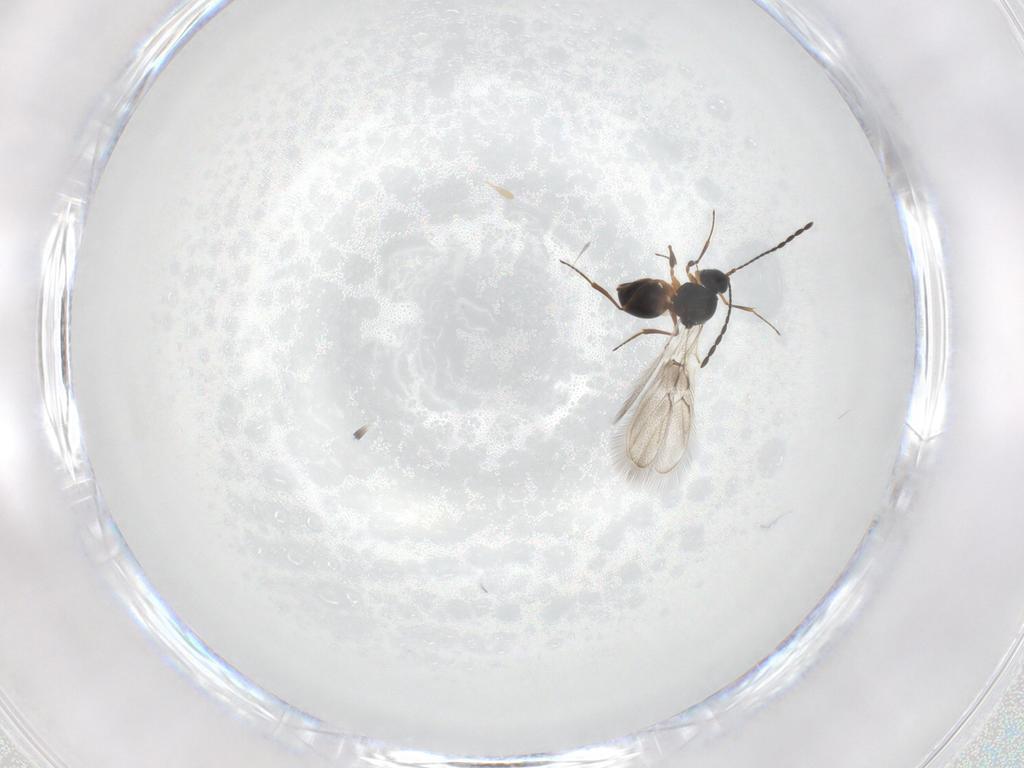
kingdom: Animalia
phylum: Arthropoda
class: Insecta
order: Hymenoptera
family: Figitidae
